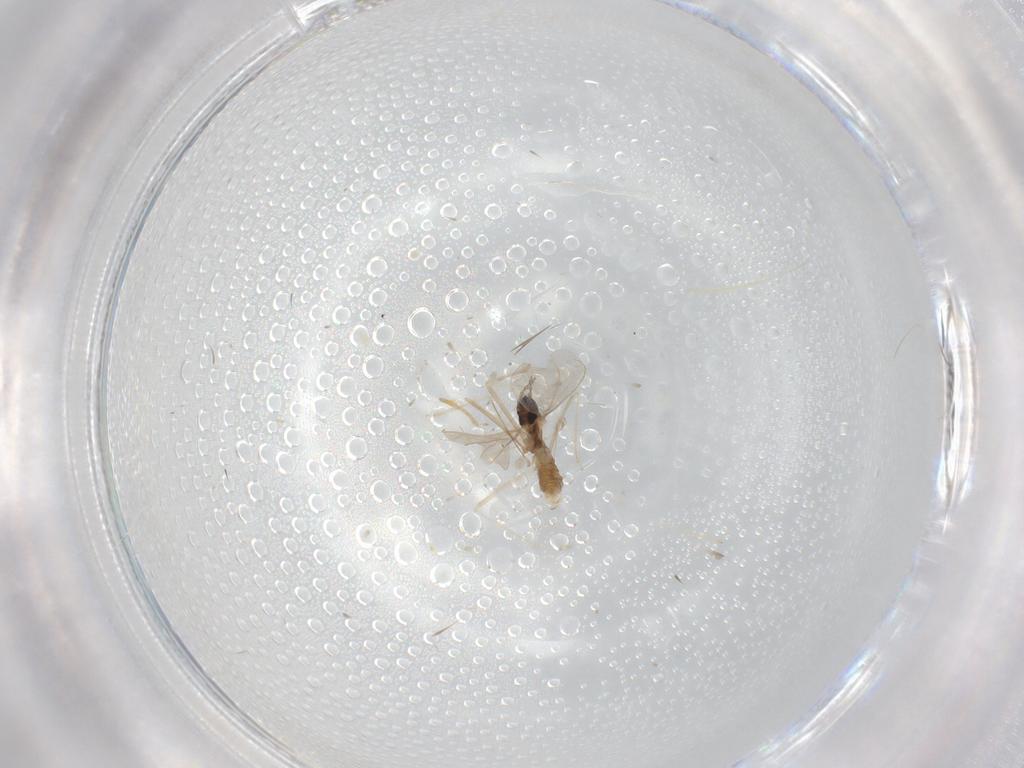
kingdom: Animalia
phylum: Arthropoda
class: Insecta
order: Diptera
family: Cecidomyiidae
